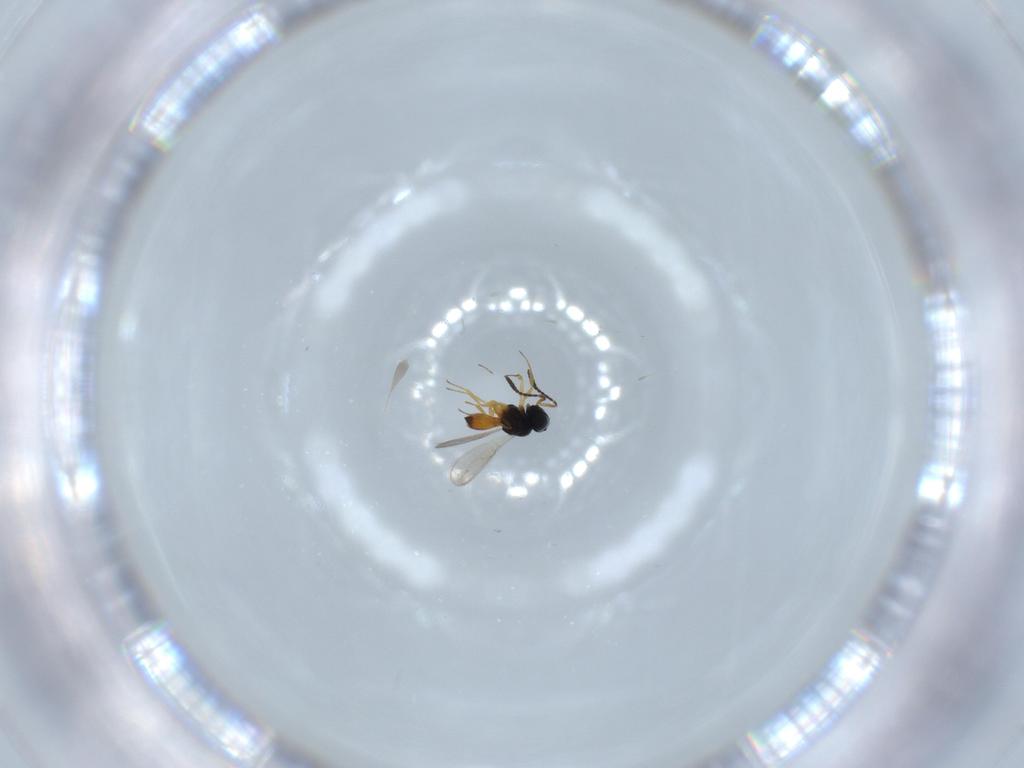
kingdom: Animalia
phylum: Arthropoda
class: Insecta
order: Hymenoptera
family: Scelionidae
